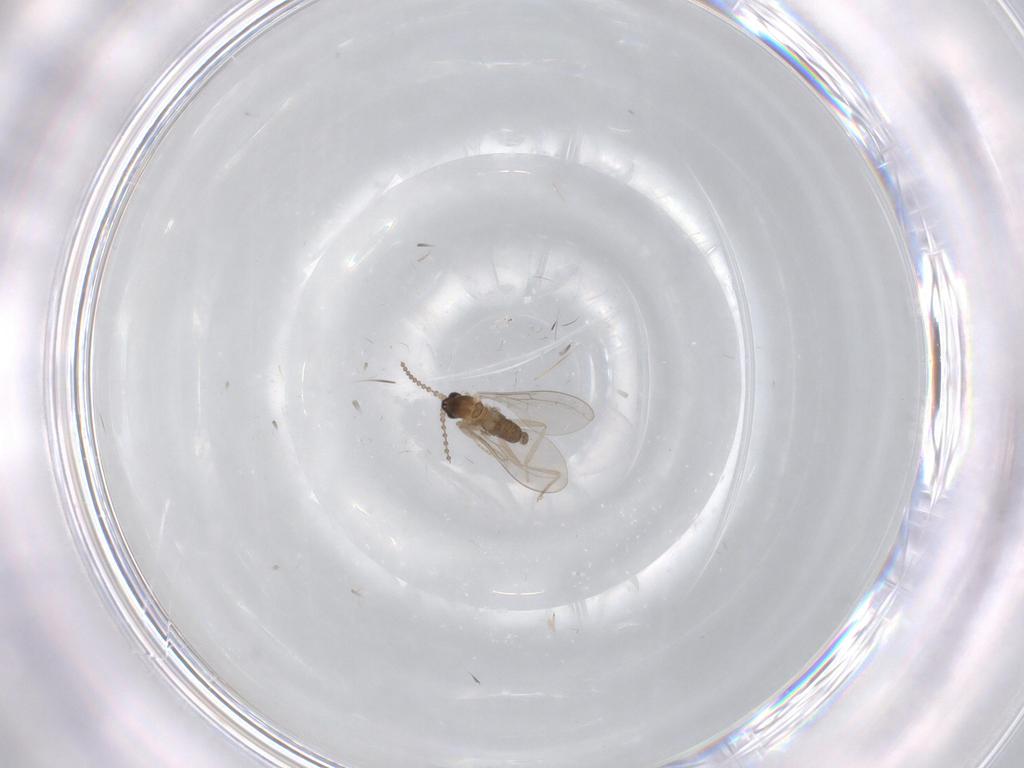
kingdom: Animalia
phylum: Arthropoda
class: Insecta
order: Diptera
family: Cecidomyiidae
